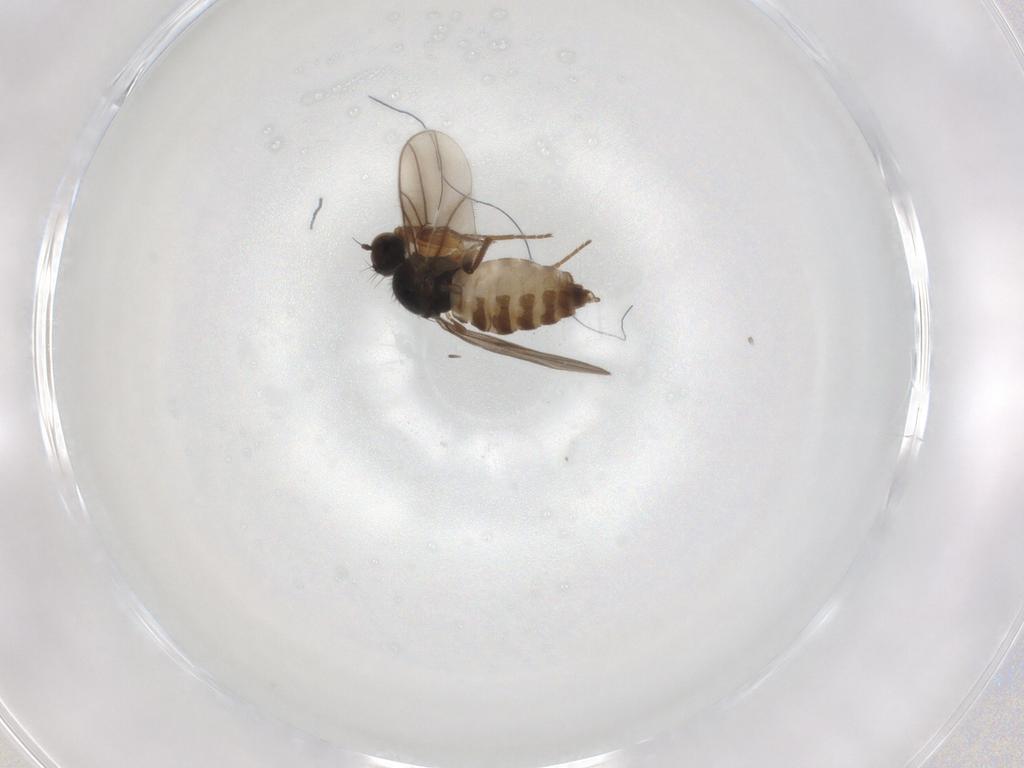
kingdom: Animalia
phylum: Arthropoda
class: Insecta
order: Diptera
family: Hybotidae
